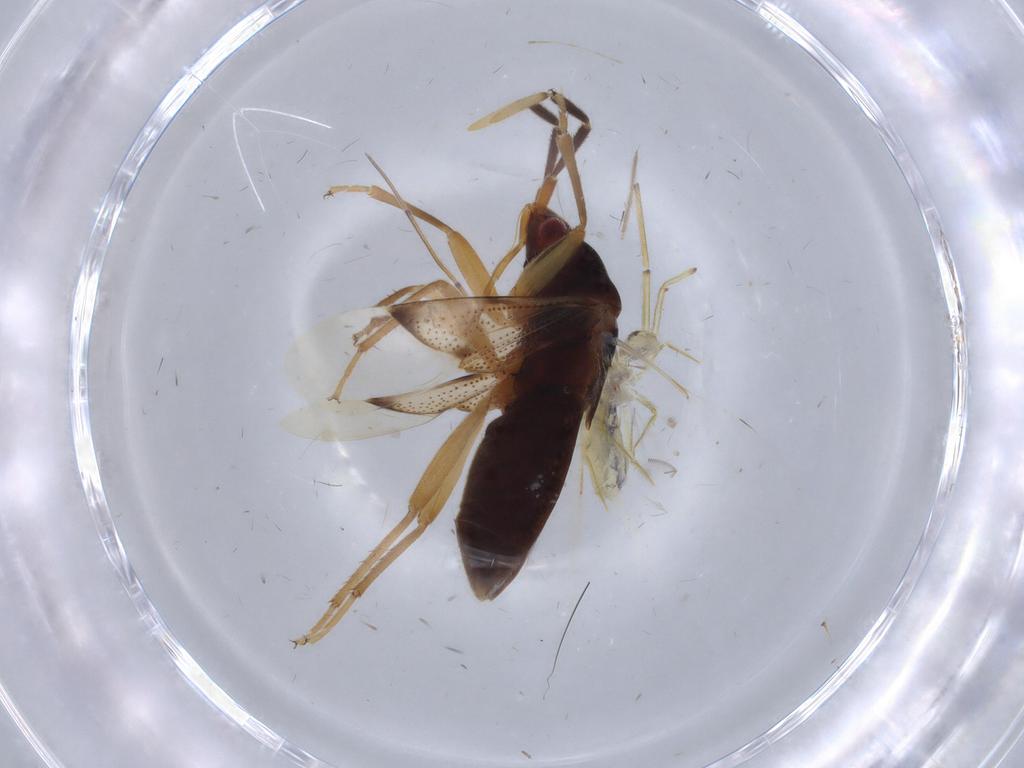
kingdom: Animalia
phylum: Arthropoda
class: Insecta
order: Hemiptera
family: Rhyparochromidae
